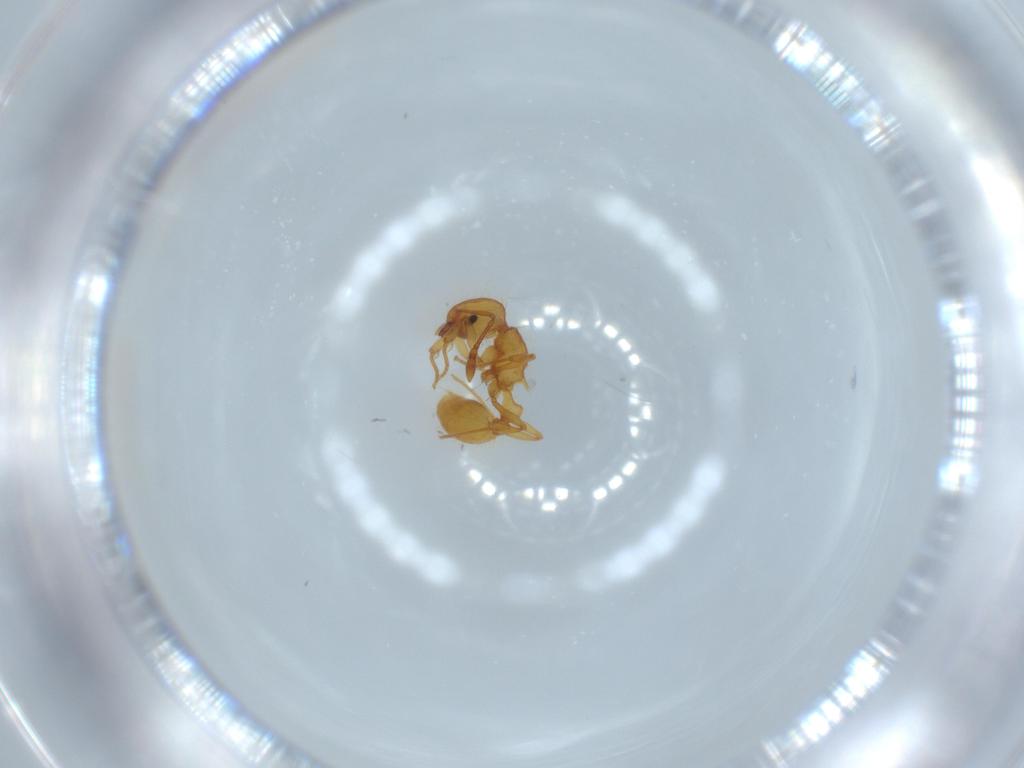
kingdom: Animalia
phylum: Arthropoda
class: Insecta
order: Hymenoptera
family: Formicidae
